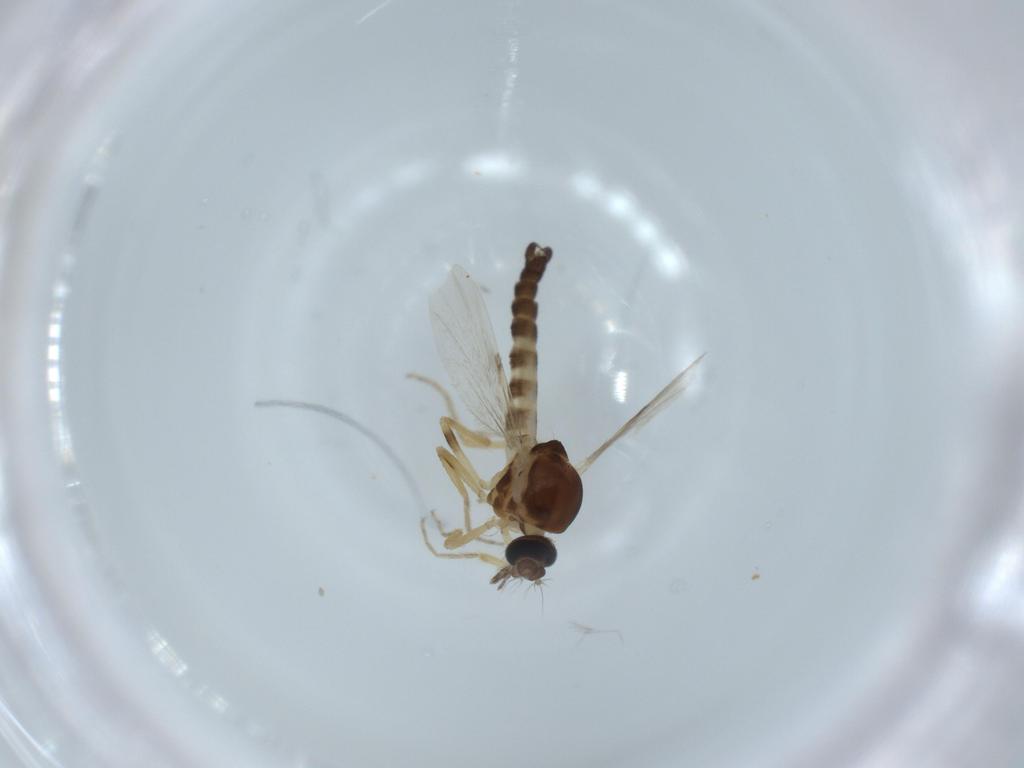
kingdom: Animalia
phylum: Arthropoda
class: Insecta
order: Diptera
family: Ceratopogonidae
